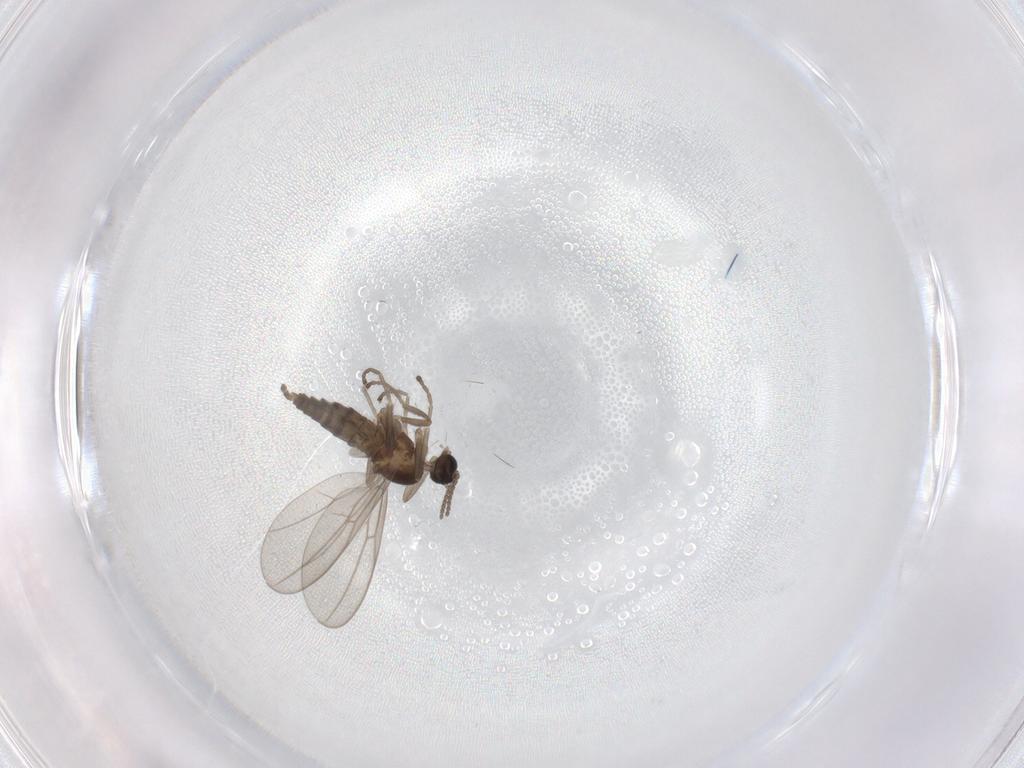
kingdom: Animalia
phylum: Arthropoda
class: Insecta
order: Diptera
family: Cecidomyiidae
